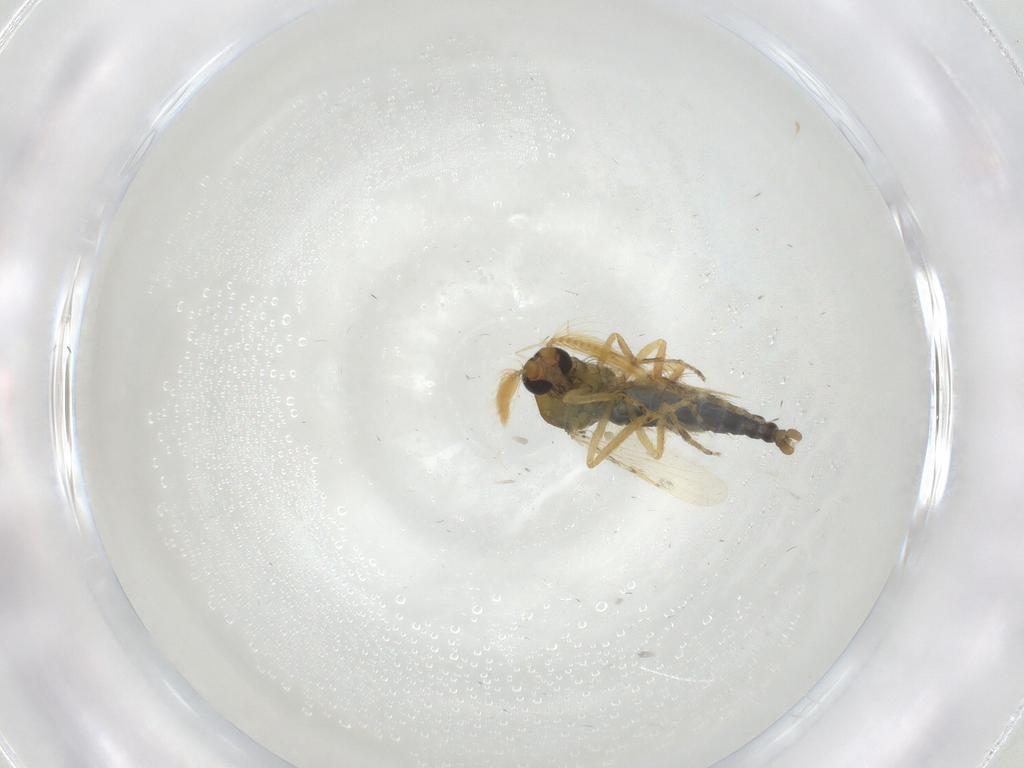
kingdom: Animalia
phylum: Arthropoda
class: Insecta
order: Diptera
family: Ceratopogonidae
